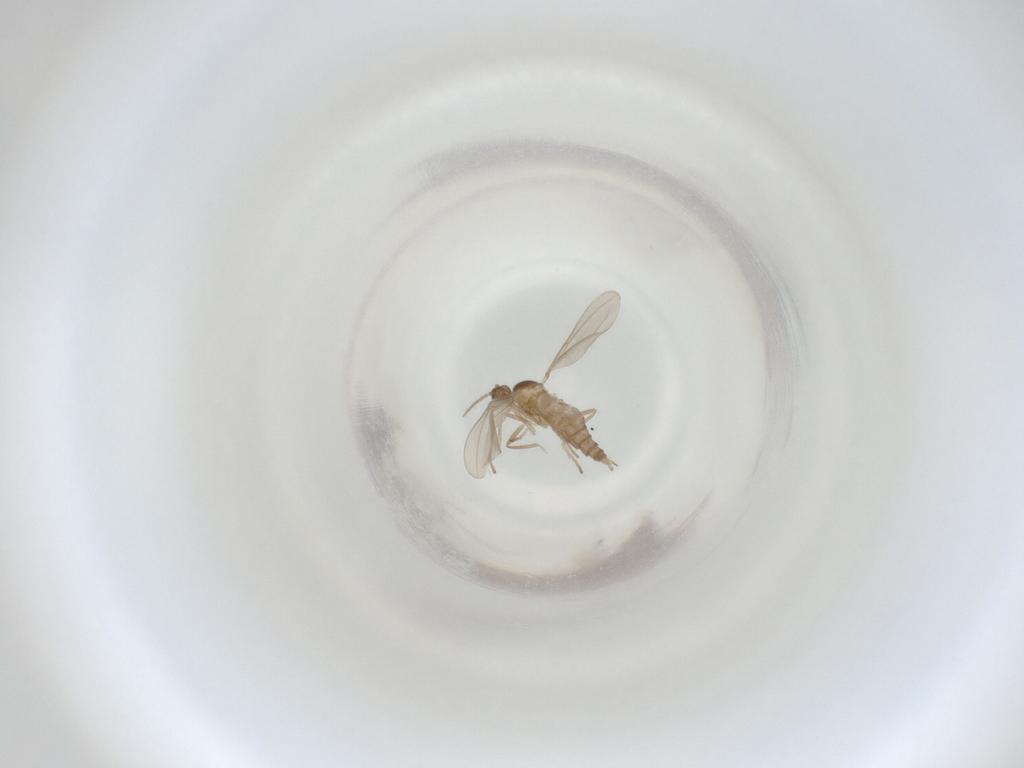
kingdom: Animalia
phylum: Arthropoda
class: Insecta
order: Diptera
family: Cecidomyiidae
